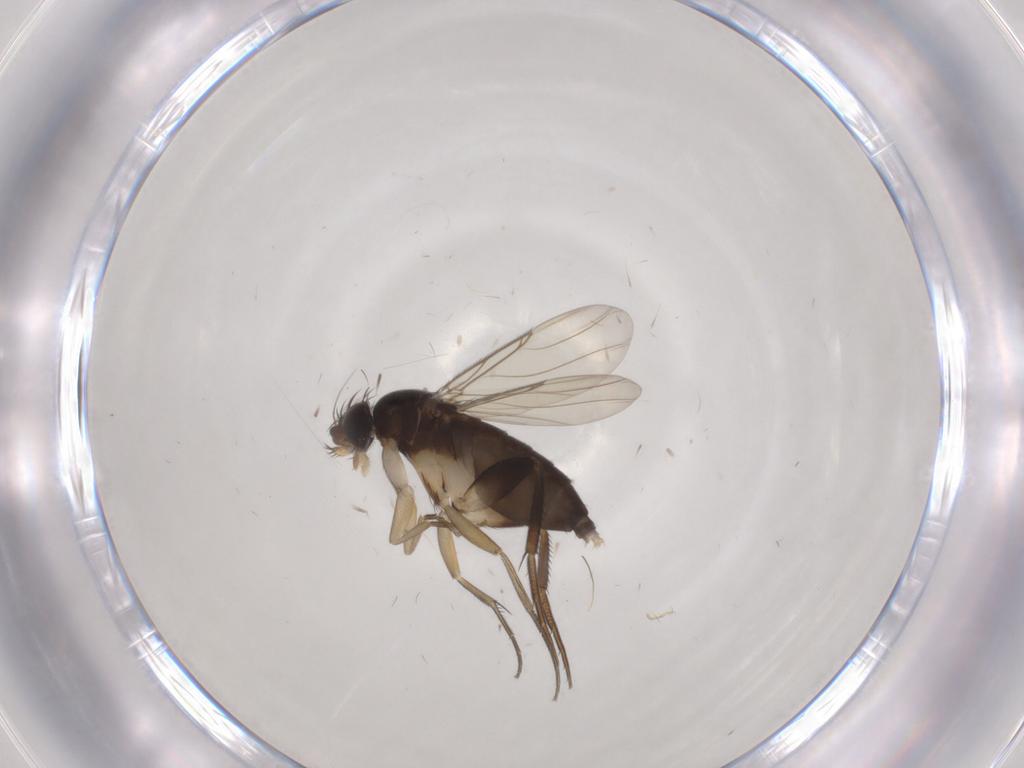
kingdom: Animalia
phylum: Arthropoda
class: Insecta
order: Diptera
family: Phoridae
